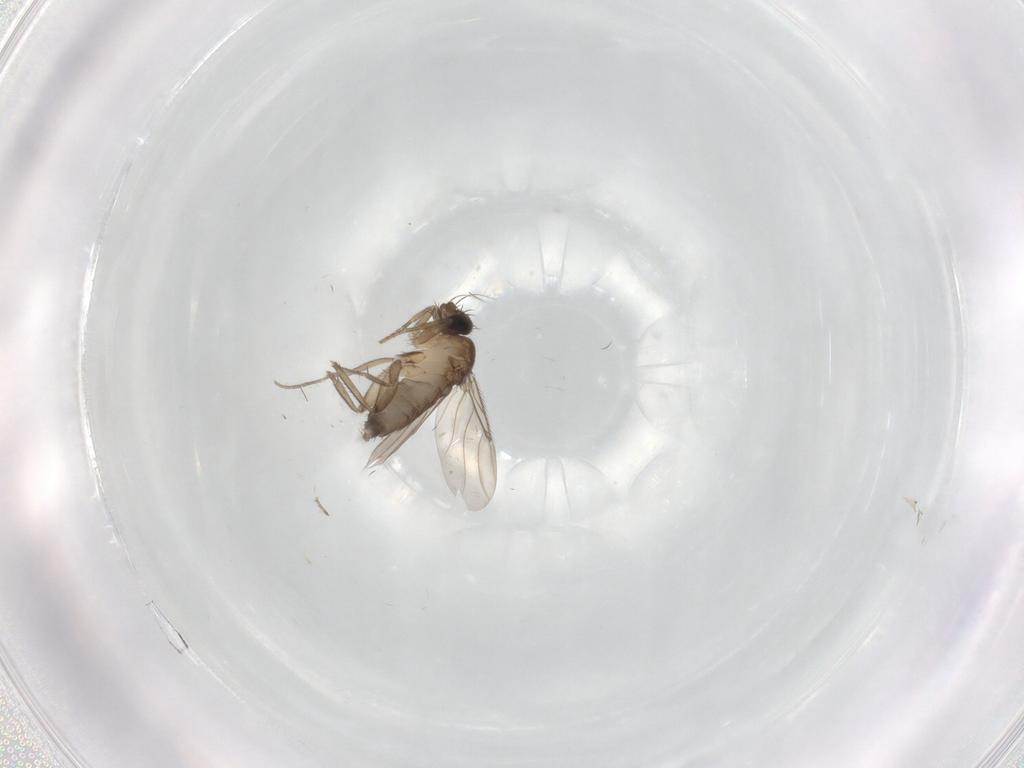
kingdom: Animalia
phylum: Arthropoda
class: Insecta
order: Diptera
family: Phoridae
